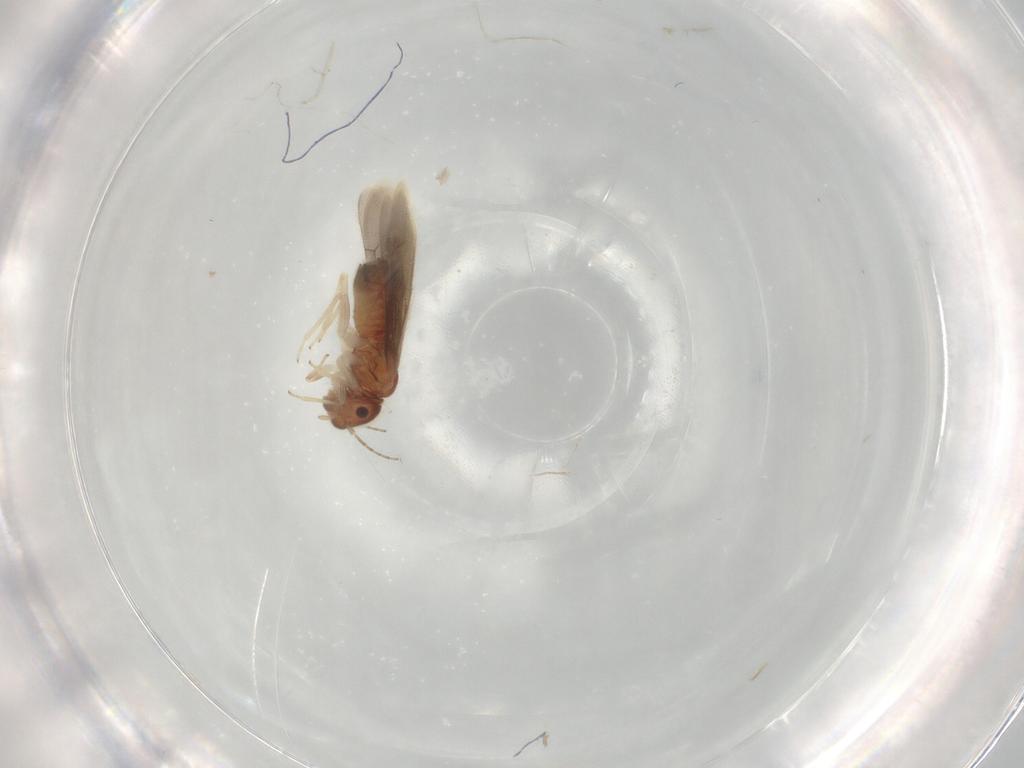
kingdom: Animalia
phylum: Arthropoda
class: Insecta
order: Psocodea
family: Archipsocidae
